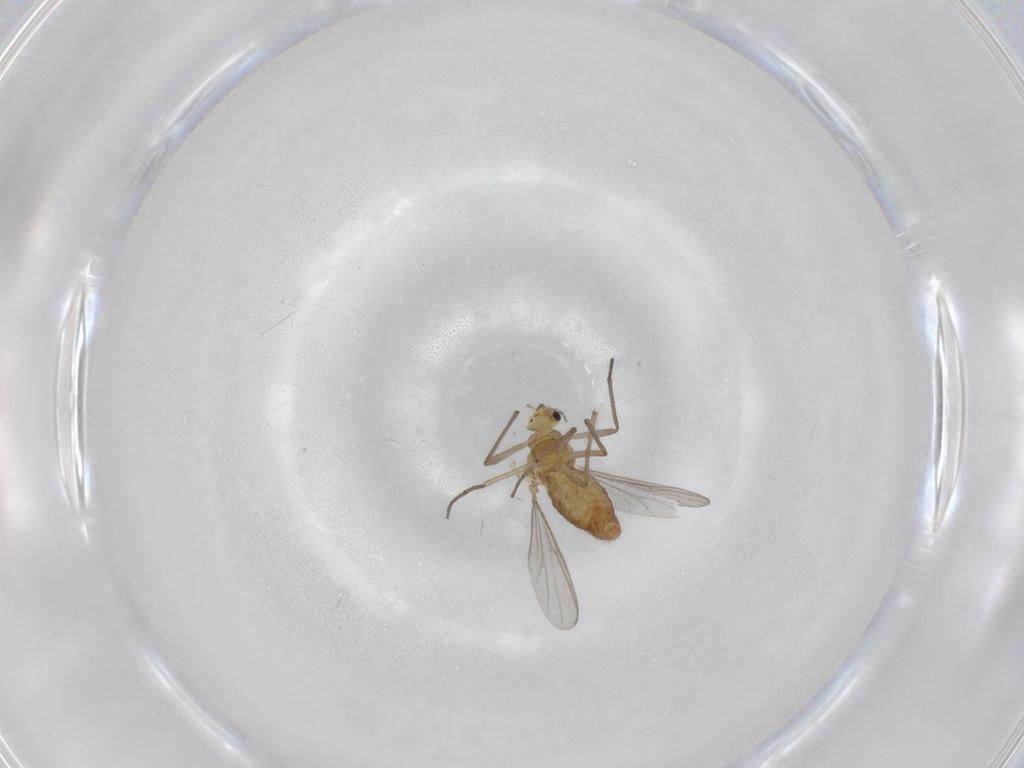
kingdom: Animalia
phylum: Arthropoda
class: Insecta
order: Diptera
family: Chironomidae
